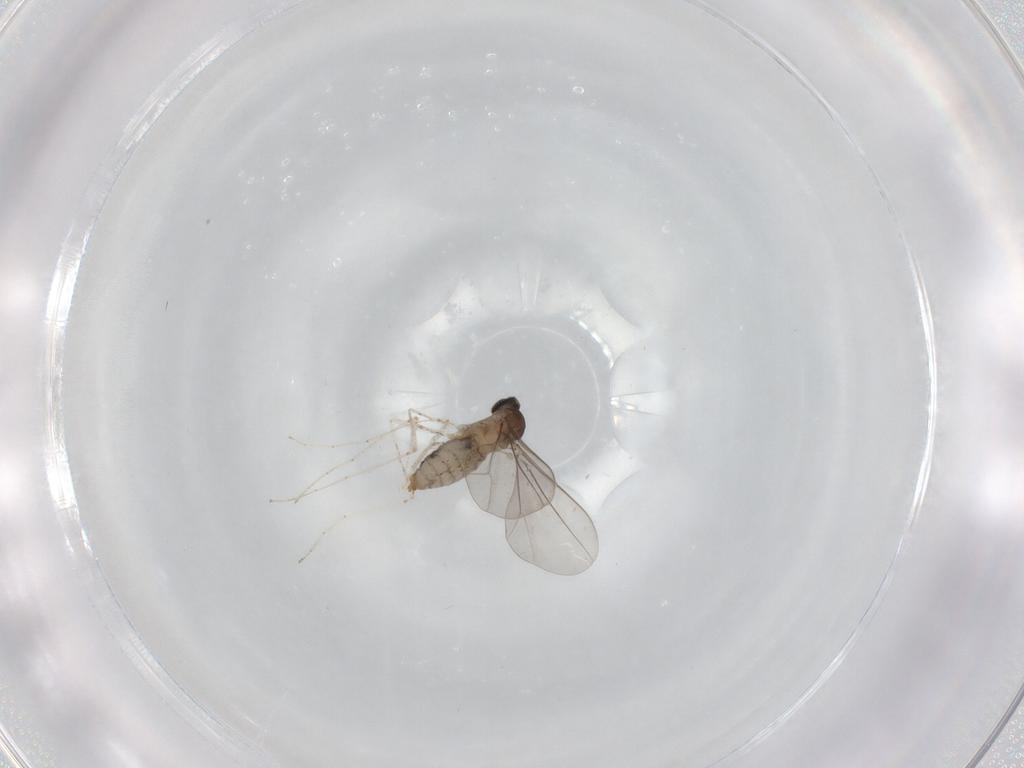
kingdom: Animalia
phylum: Arthropoda
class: Insecta
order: Diptera
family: Cecidomyiidae
